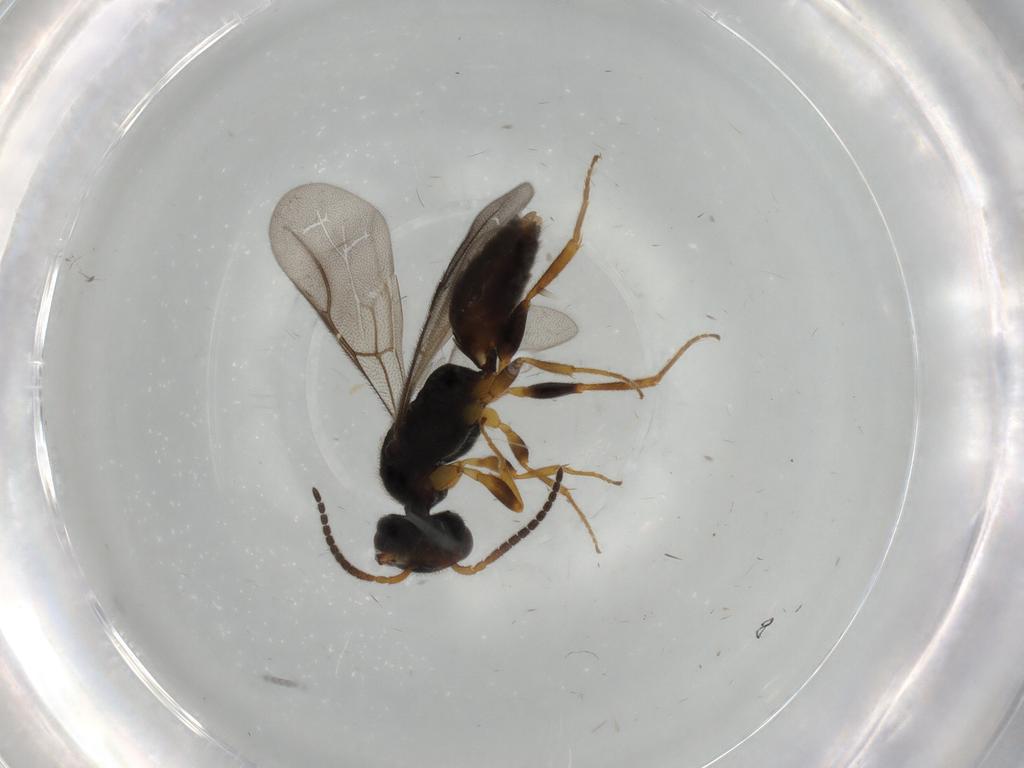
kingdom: Animalia
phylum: Arthropoda
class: Insecta
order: Hymenoptera
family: Bethylidae
